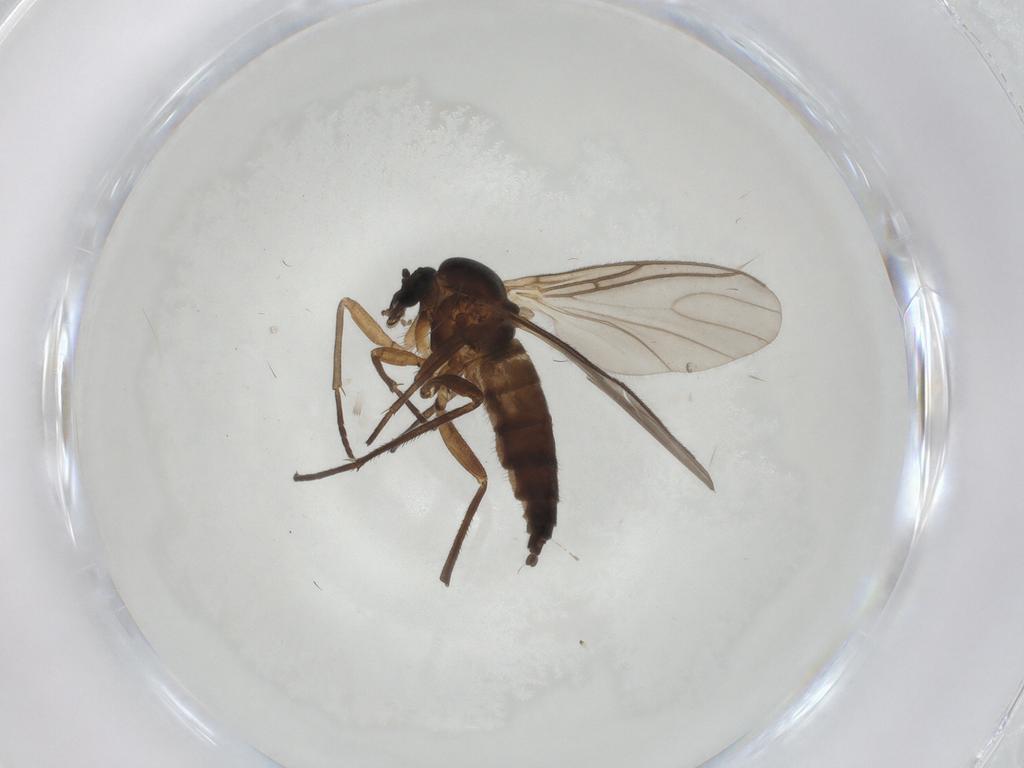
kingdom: Animalia
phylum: Arthropoda
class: Insecta
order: Diptera
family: Sciaridae
